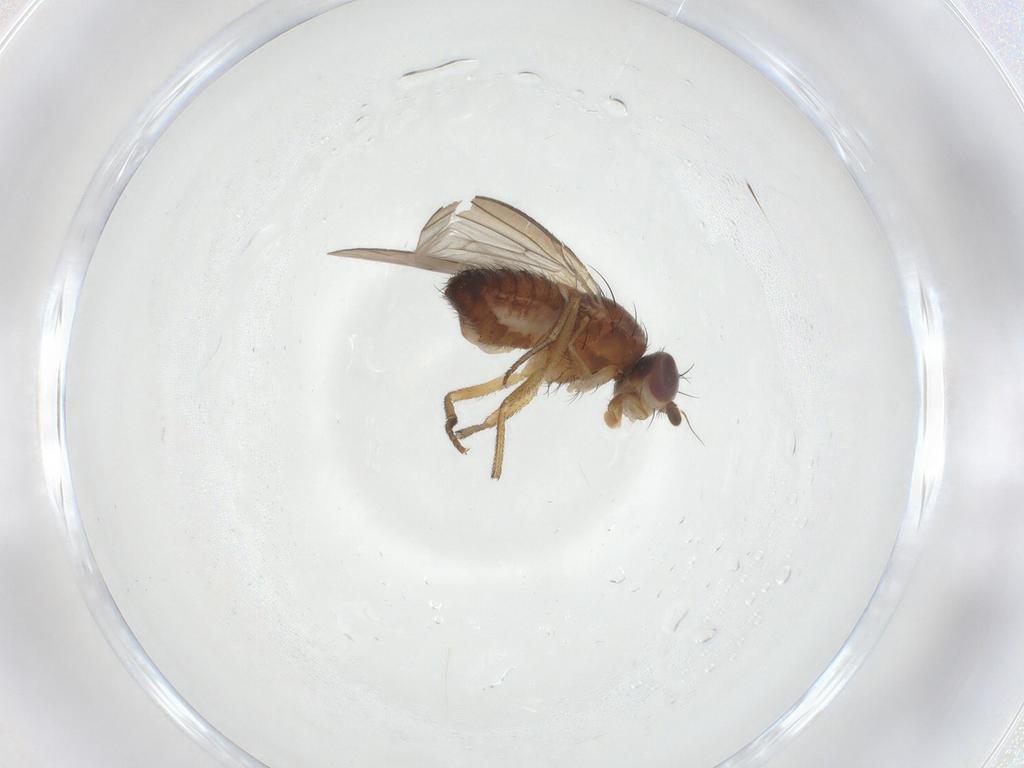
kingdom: Animalia
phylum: Arthropoda
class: Insecta
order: Diptera
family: Heleomyzidae
